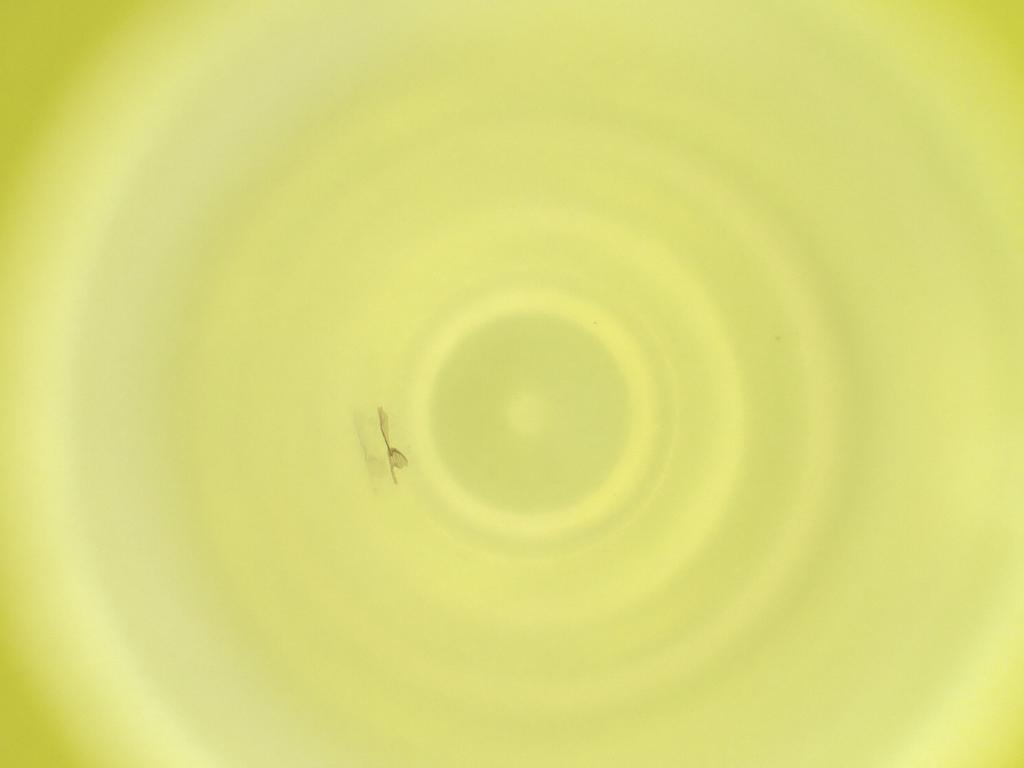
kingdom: Animalia
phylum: Arthropoda
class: Insecta
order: Diptera
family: Cecidomyiidae
